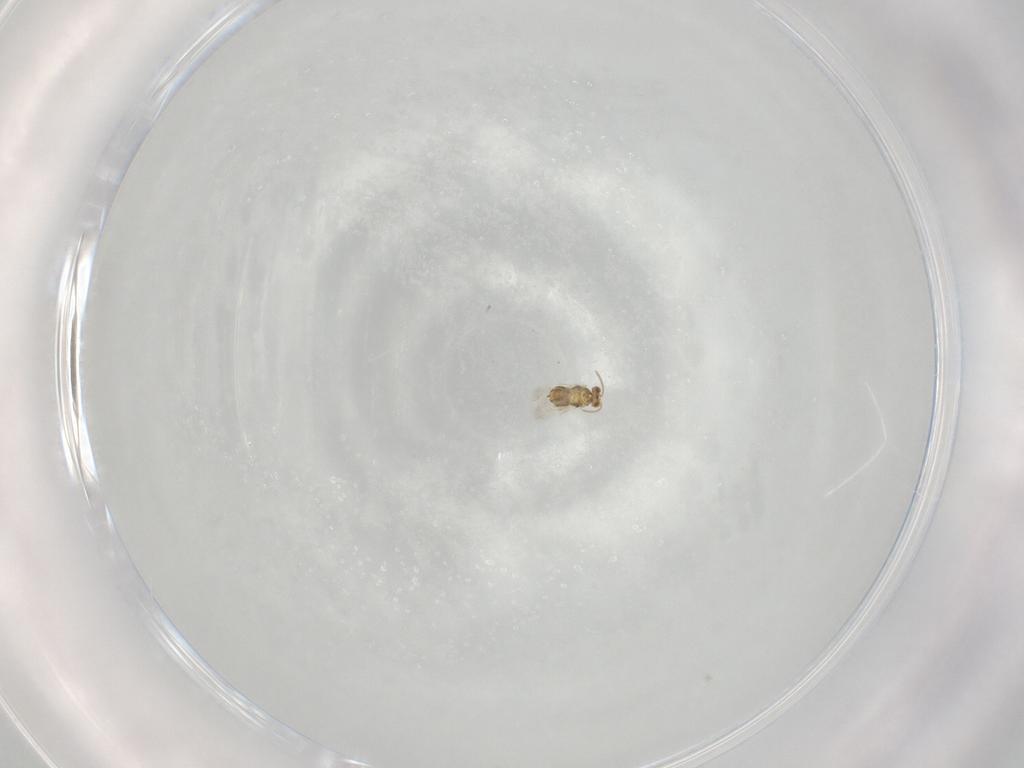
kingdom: Animalia
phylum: Arthropoda
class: Insecta
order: Hymenoptera
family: Aphelinidae
